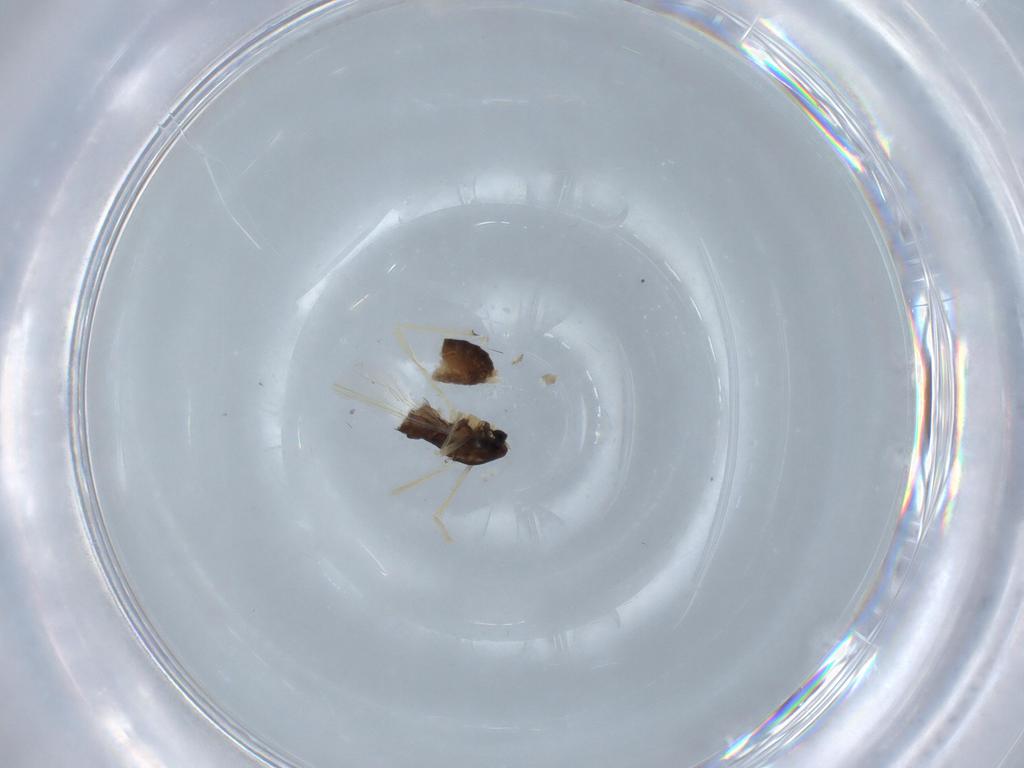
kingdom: Animalia
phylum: Arthropoda
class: Insecta
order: Diptera
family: Chironomidae
